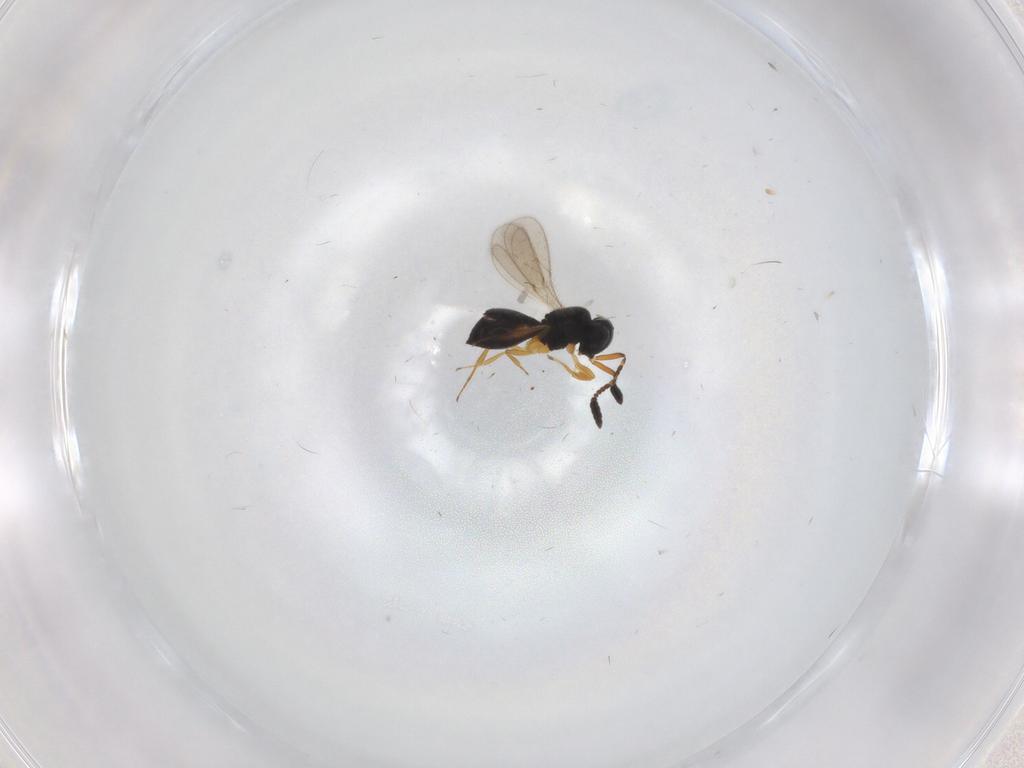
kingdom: Animalia
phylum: Arthropoda
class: Insecta
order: Hymenoptera
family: Scelionidae
